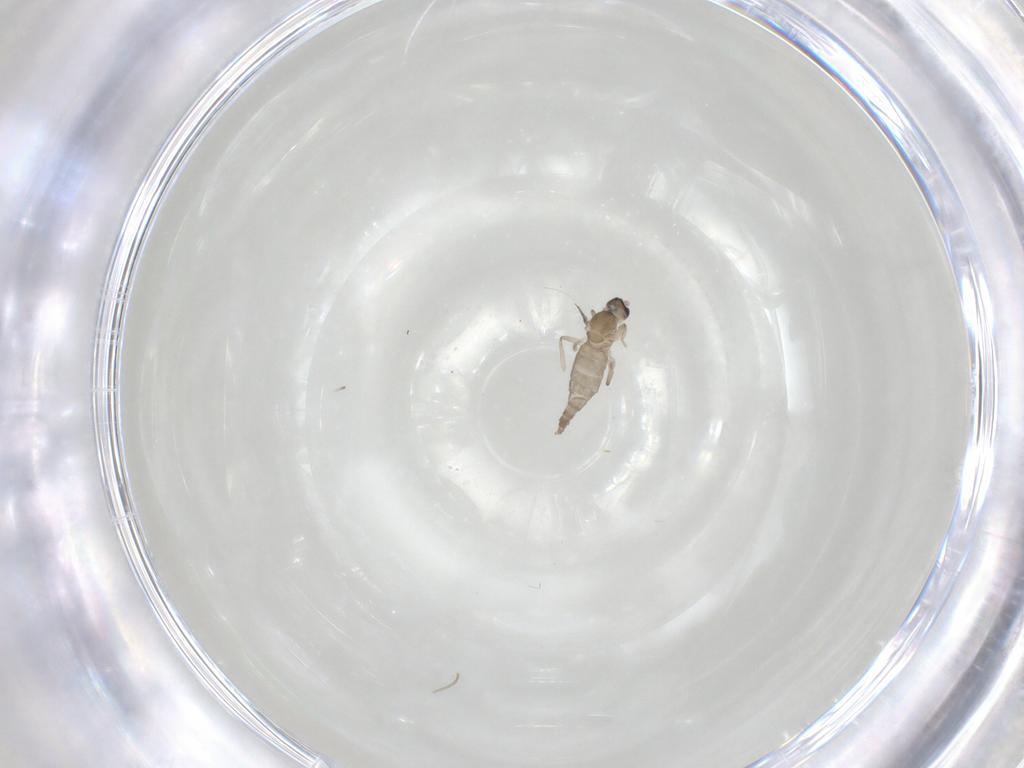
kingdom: Animalia
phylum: Arthropoda
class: Insecta
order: Diptera
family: Cecidomyiidae
